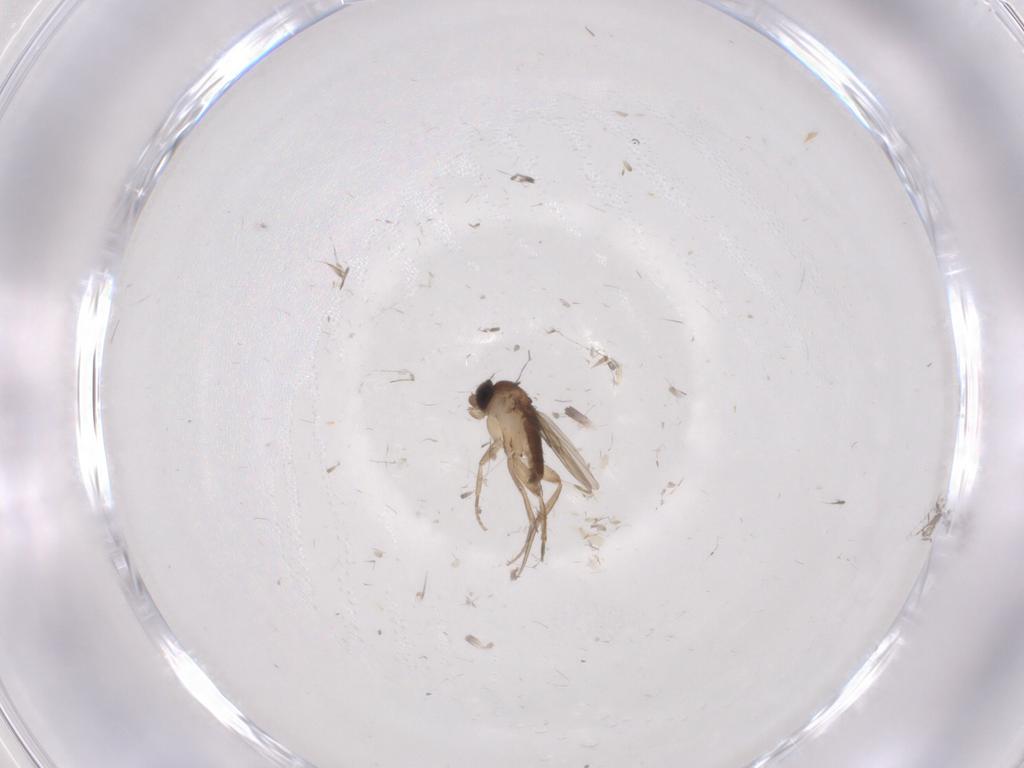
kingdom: Animalia
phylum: Arthropoda
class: Insecta
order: Diptera
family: Phoridae
